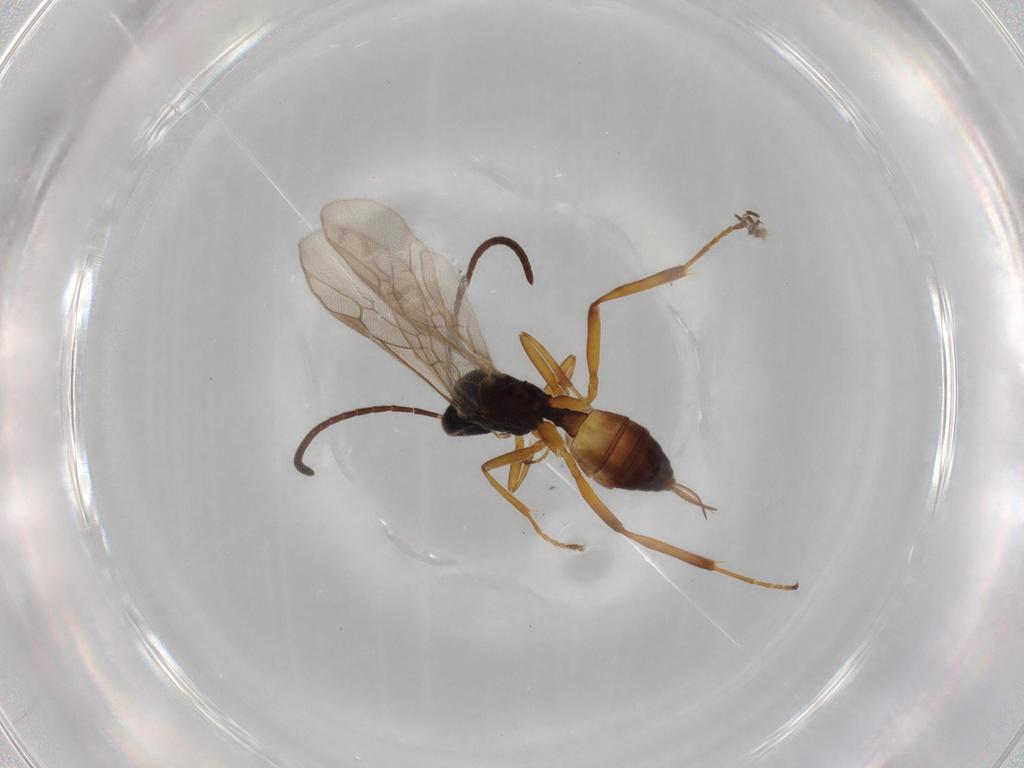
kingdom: Animalia
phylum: Arthropoda
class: Insecta
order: Hymenoptera
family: Ichneumonidae
